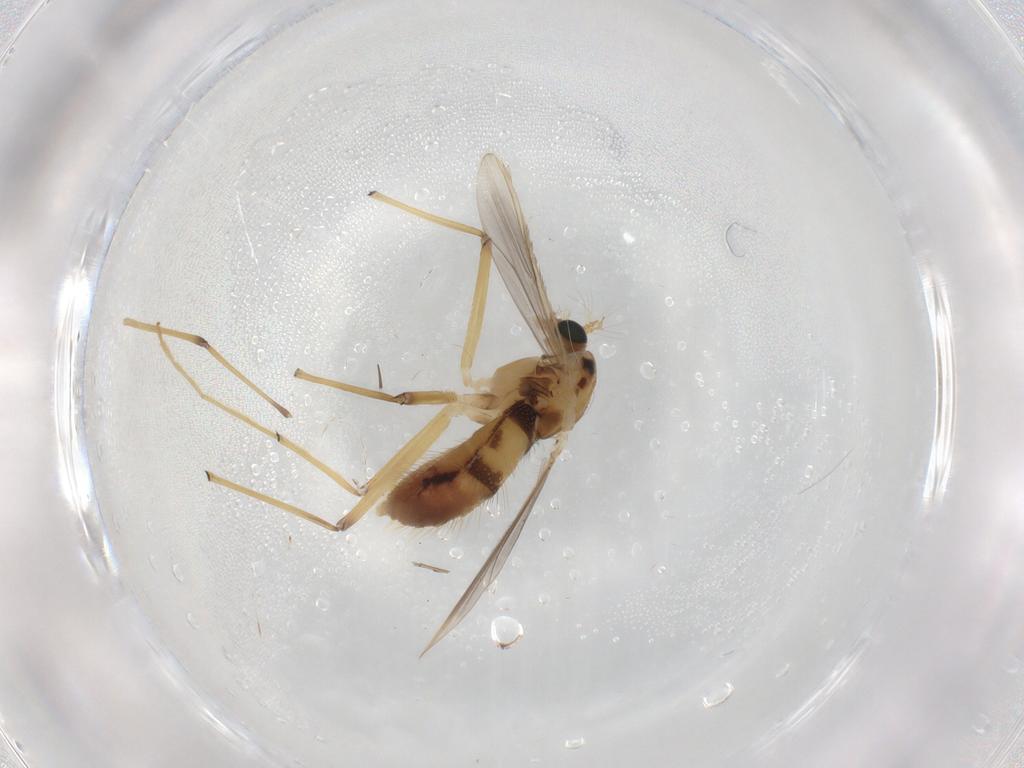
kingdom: Animalia
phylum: Arthropoda
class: Insecta
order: Diptera
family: Chironomidae
